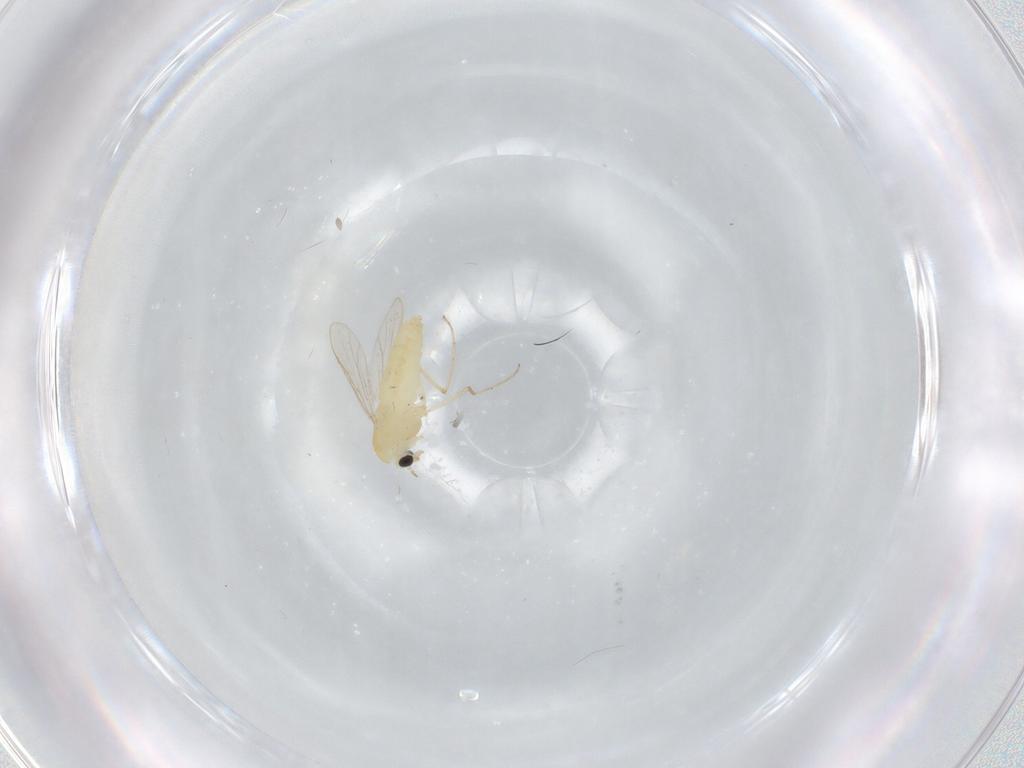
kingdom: Animalia
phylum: Arthropoda
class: Insecta
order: Diptera
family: Chironomidae
